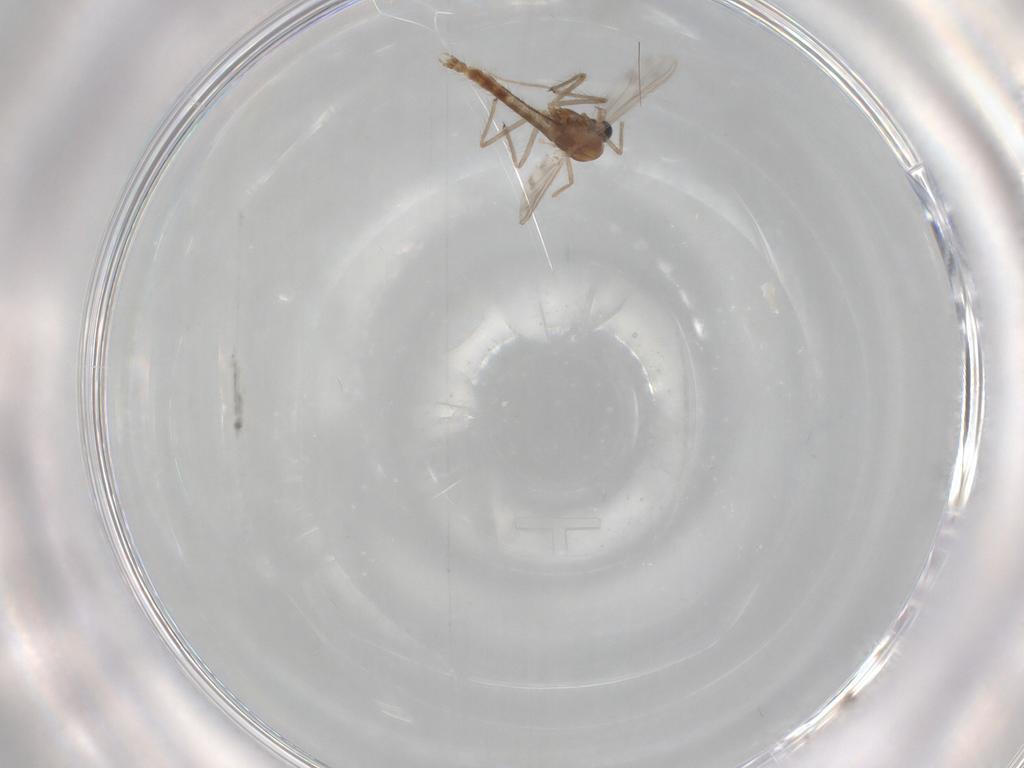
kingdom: Animalia
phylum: Arthropoda
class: Insecta
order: Diptera
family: Chironomidae
